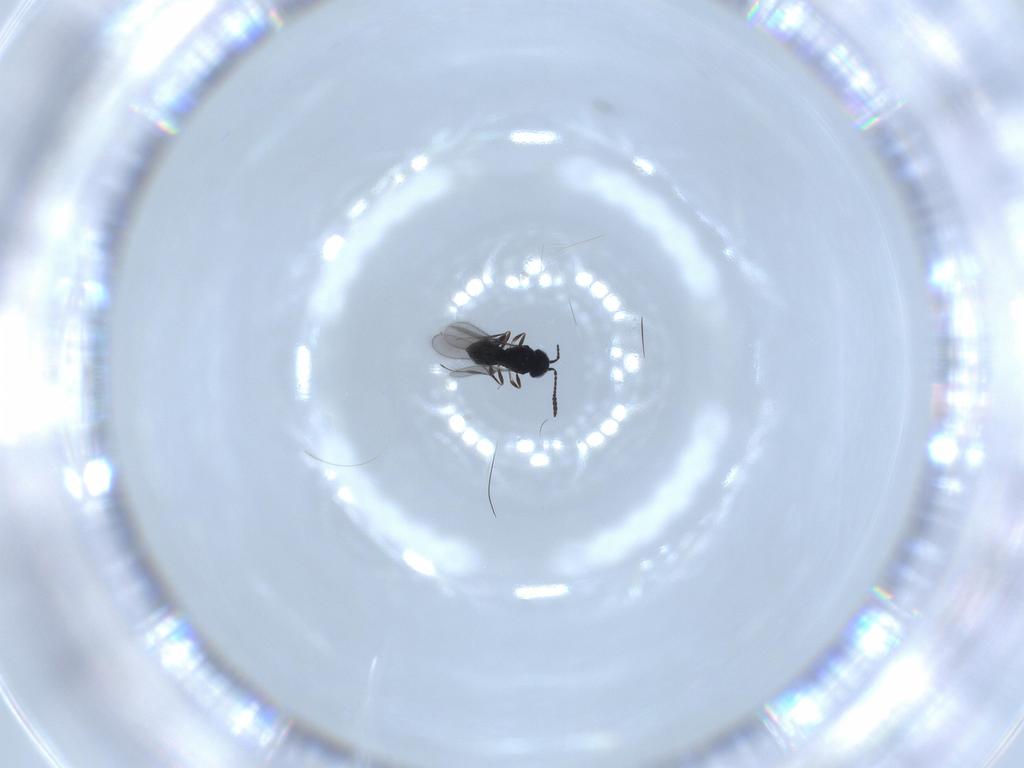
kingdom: Animalia
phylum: Arthropoda
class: Insecta
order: Hymenoptera
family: Scelionidae
